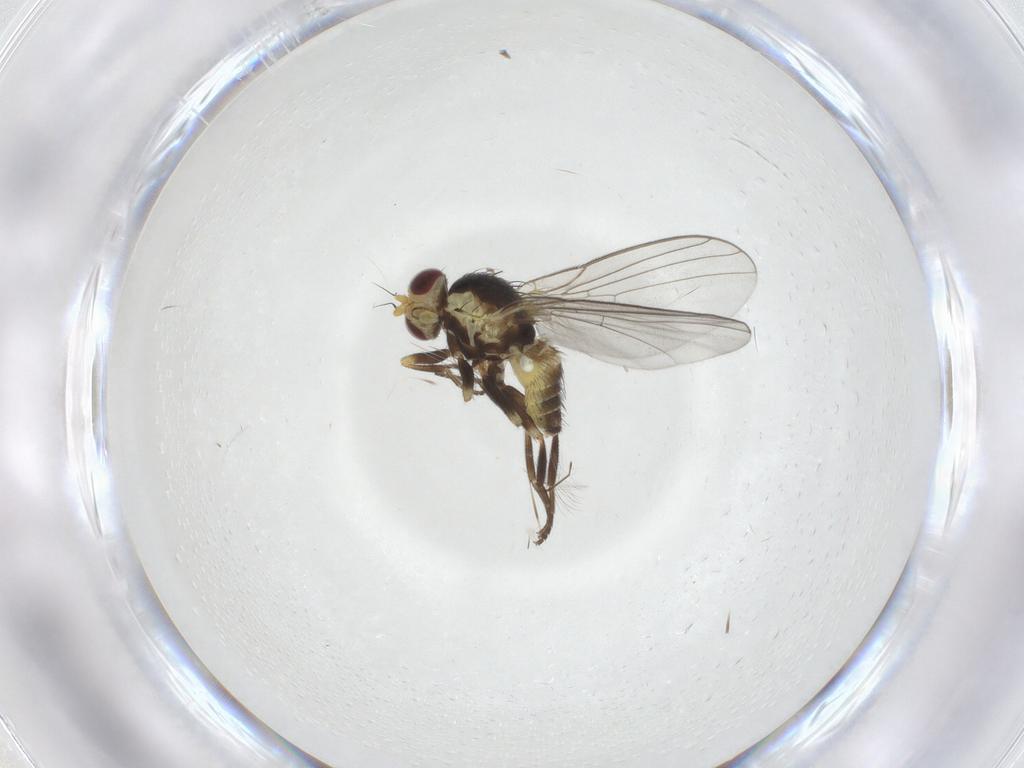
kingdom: Animalia
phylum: Arthropoda
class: Insecta
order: Diptera
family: Chironomidae
